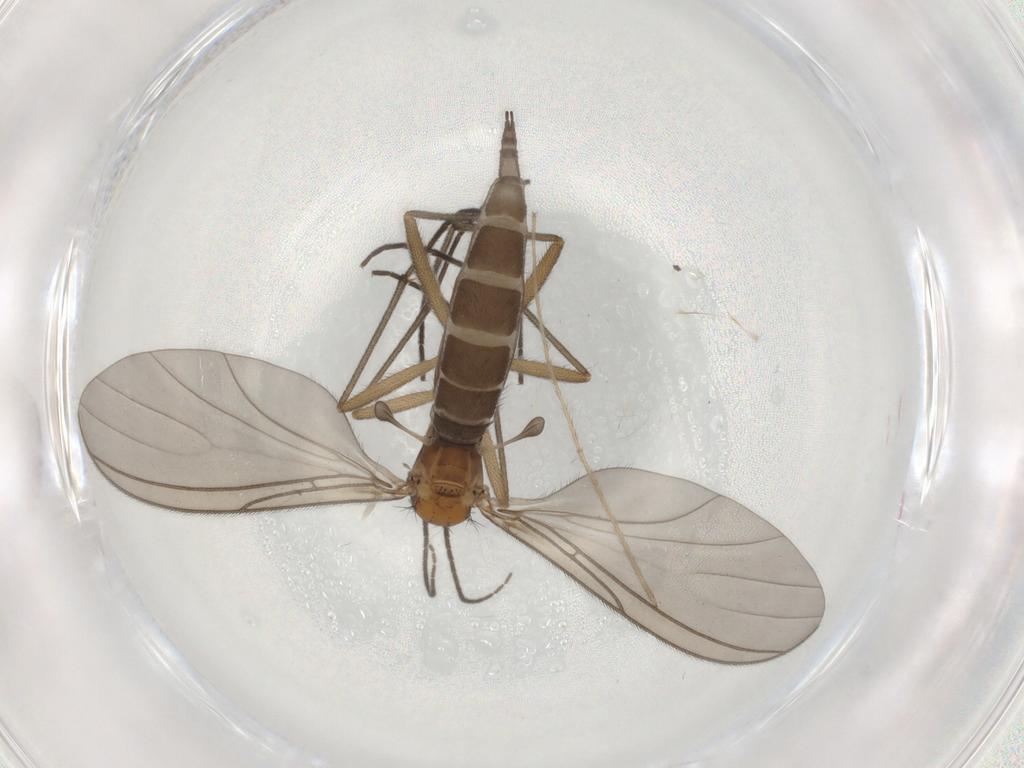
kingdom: Animalia
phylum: Arthropoda
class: Insecta
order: Diptera
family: Sciaridae
